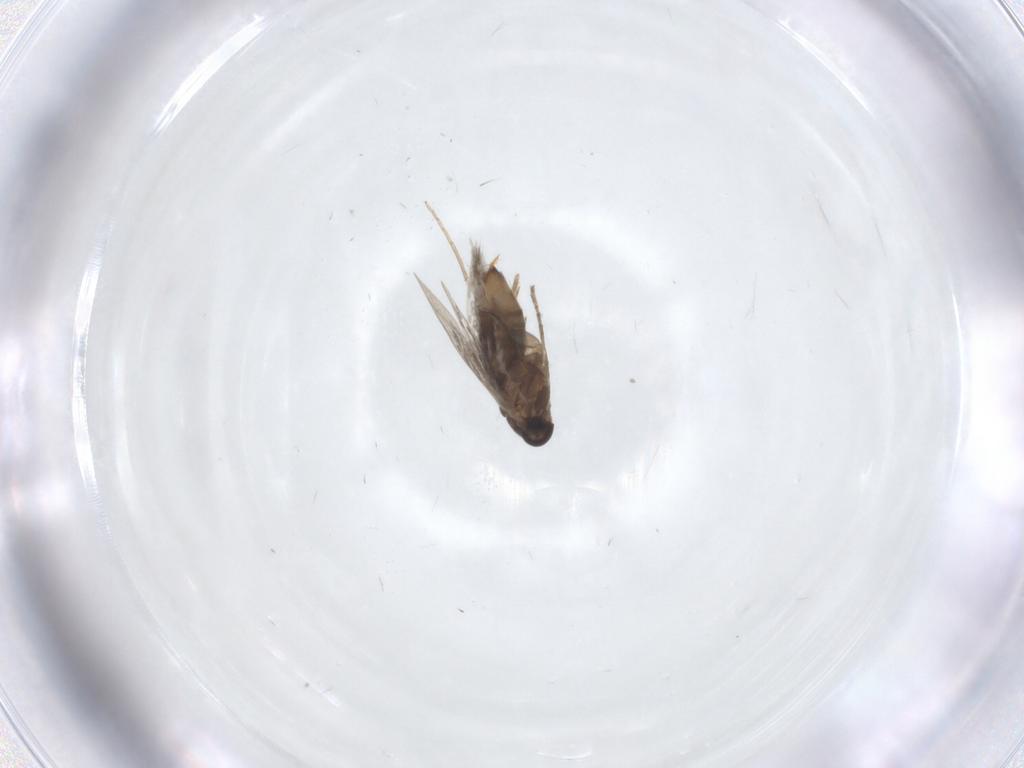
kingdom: Animalia
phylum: Arthropoda
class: Insecta
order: Lepidoptera
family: Heliozelidae
